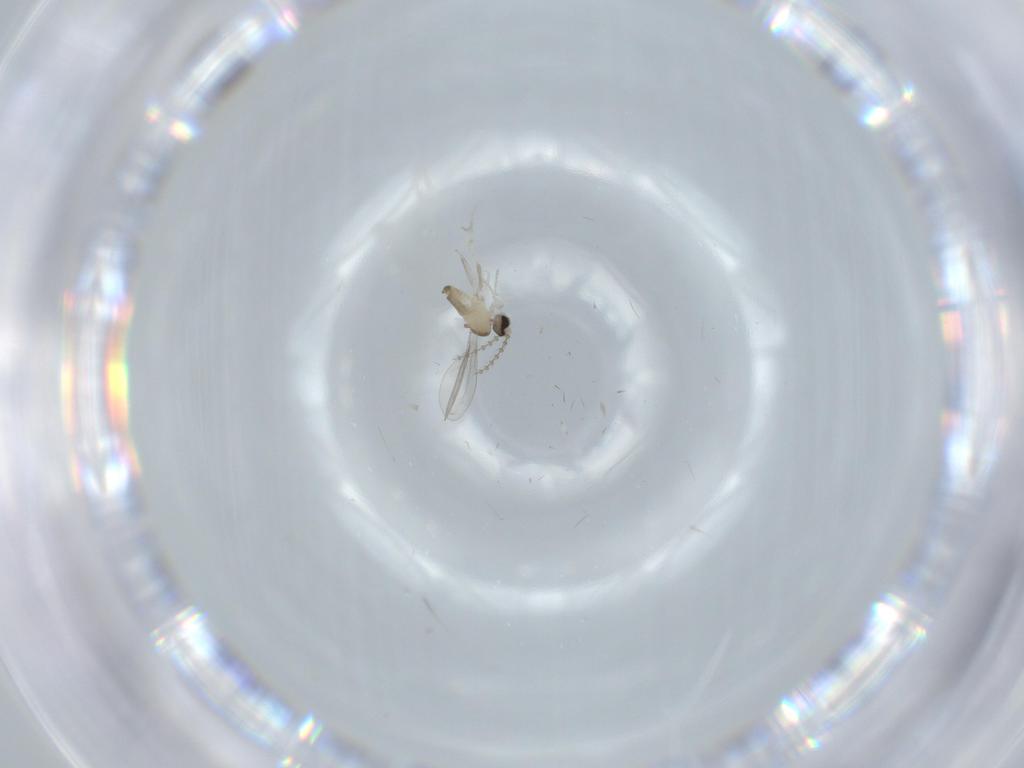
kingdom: Animalia
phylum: Arthropoda
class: Insecta
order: Diptera
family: Cecidomyiidae
